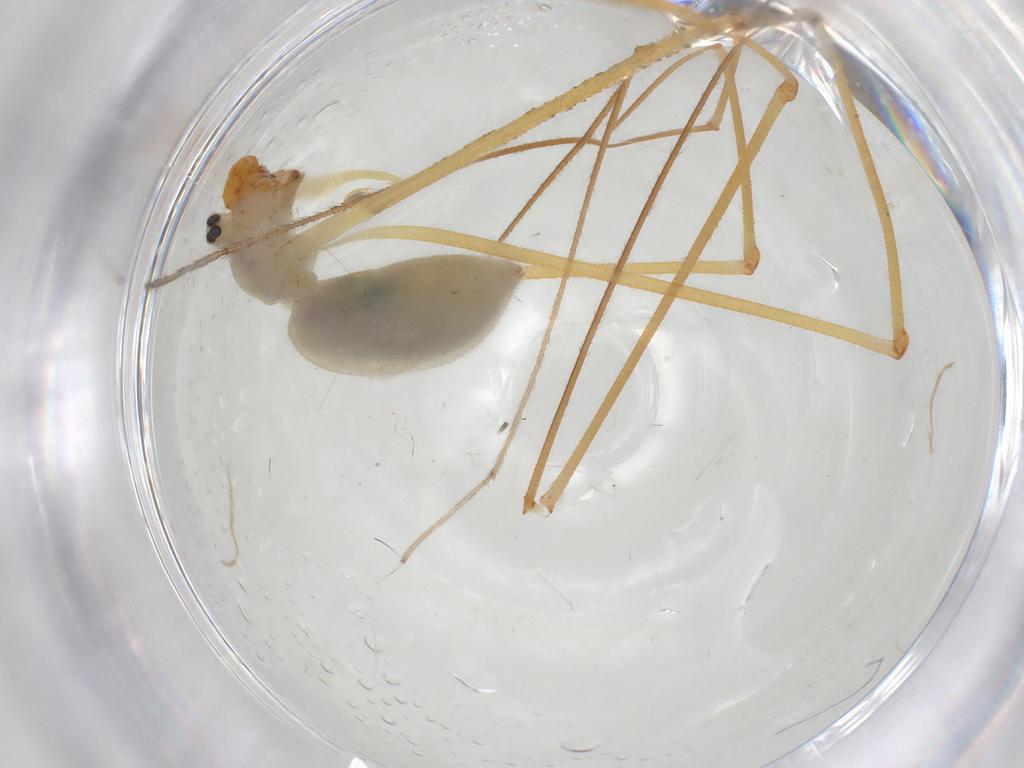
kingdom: Animalia
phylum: Arthropoda
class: Arachnida
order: Araneae
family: Pholcidae
